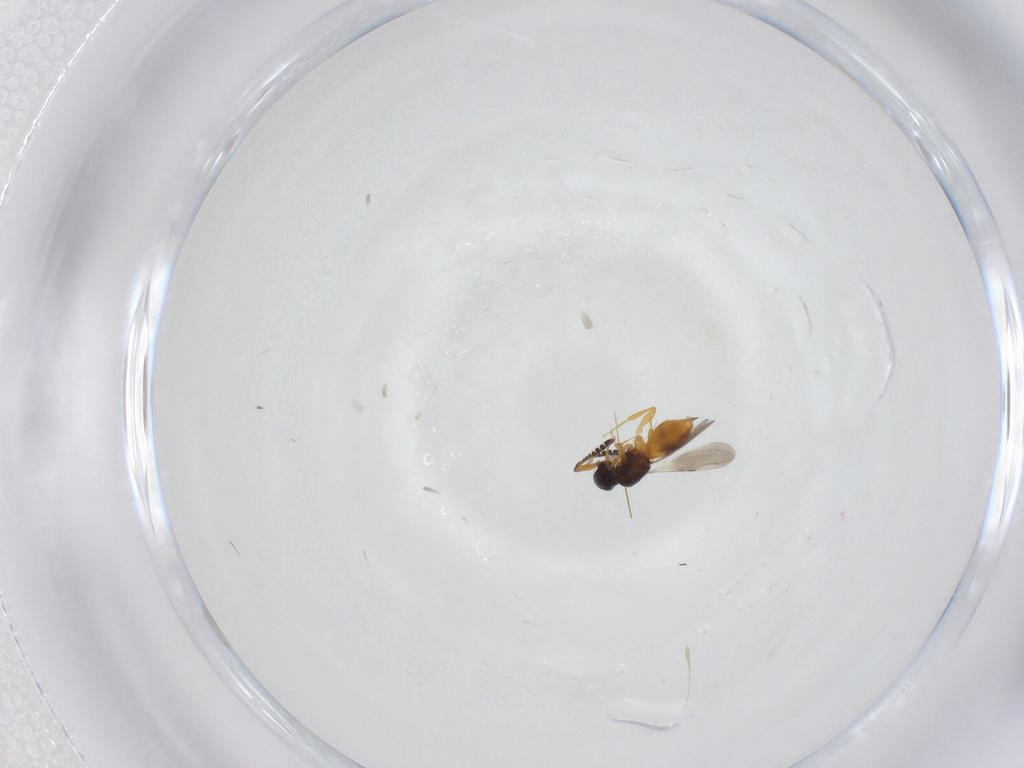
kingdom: Animalia
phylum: Arthropoda
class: Insecta
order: Hymenoptera
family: Ceraphronidae
